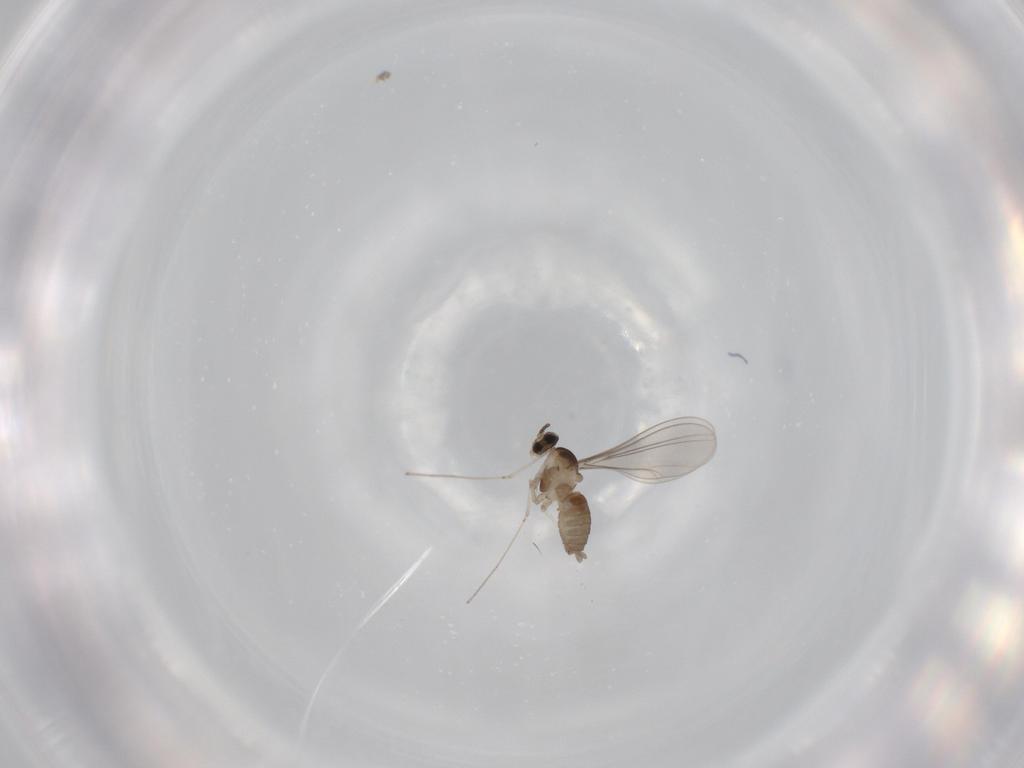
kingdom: Animalia
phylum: Arthropoda
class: Insecta
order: Diptera
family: Cecidomyiidae
